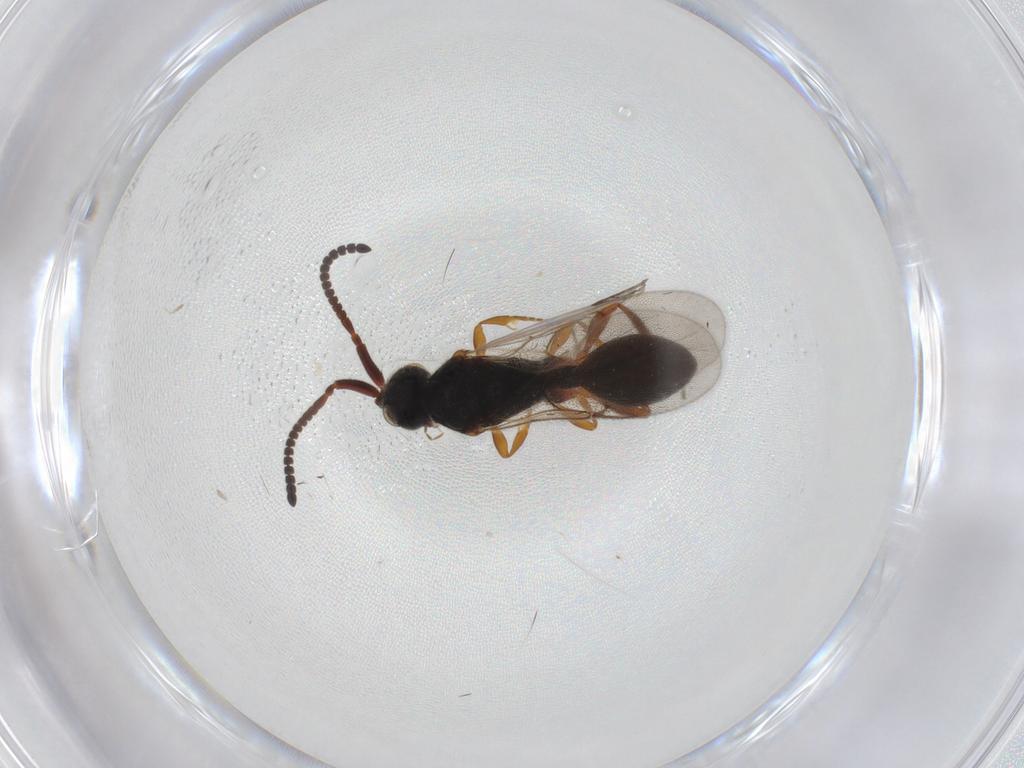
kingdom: Animalia
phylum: Arthropoda
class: Insecta
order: Hymenoptera
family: Diapriidae
